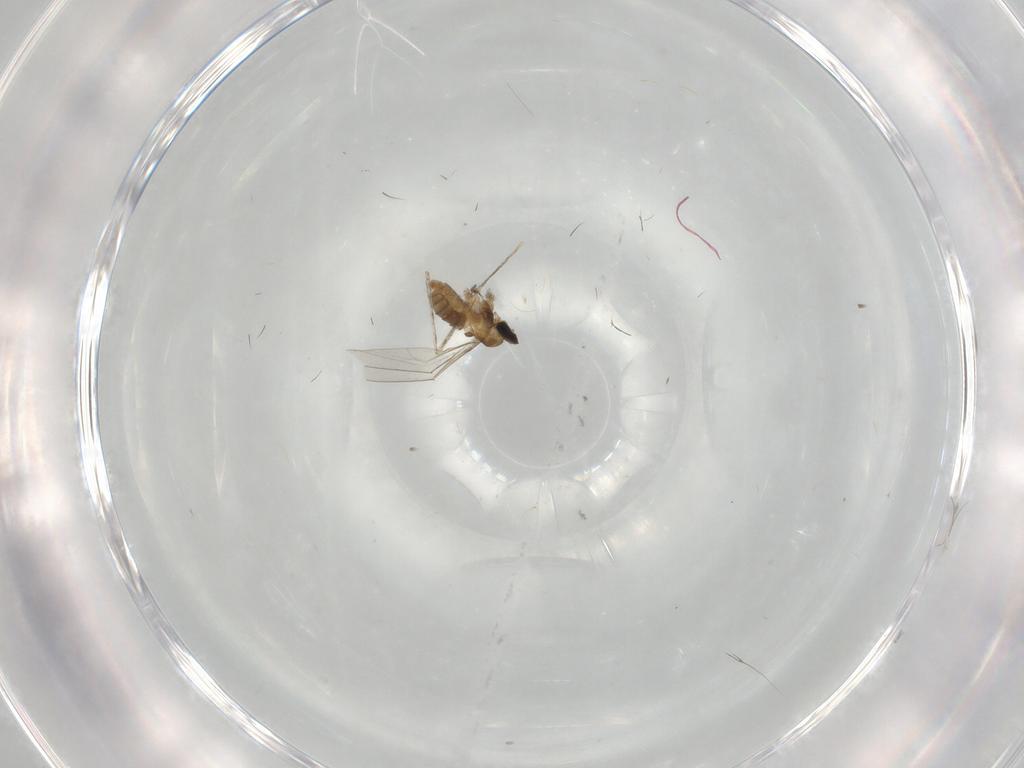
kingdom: Animalia
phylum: Arthropoda
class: Insecta
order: Diptera
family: Cecidomyiidae
